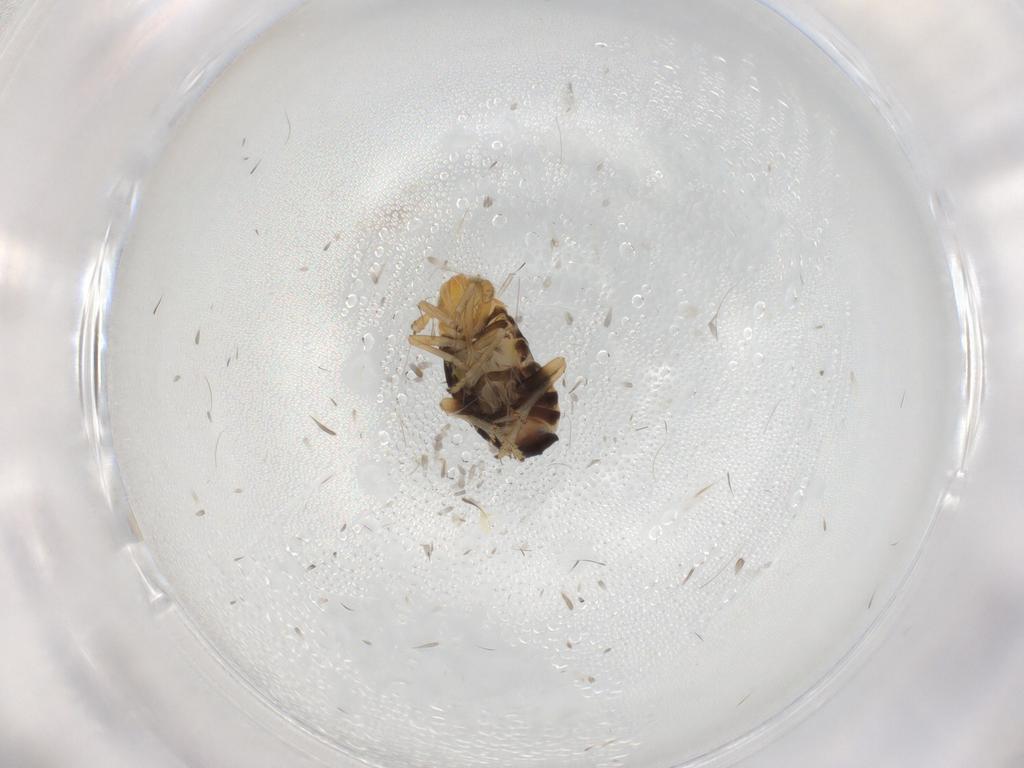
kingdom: Animalia
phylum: Arthropoda
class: Insecta
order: Hemiptera
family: Delphacidae
